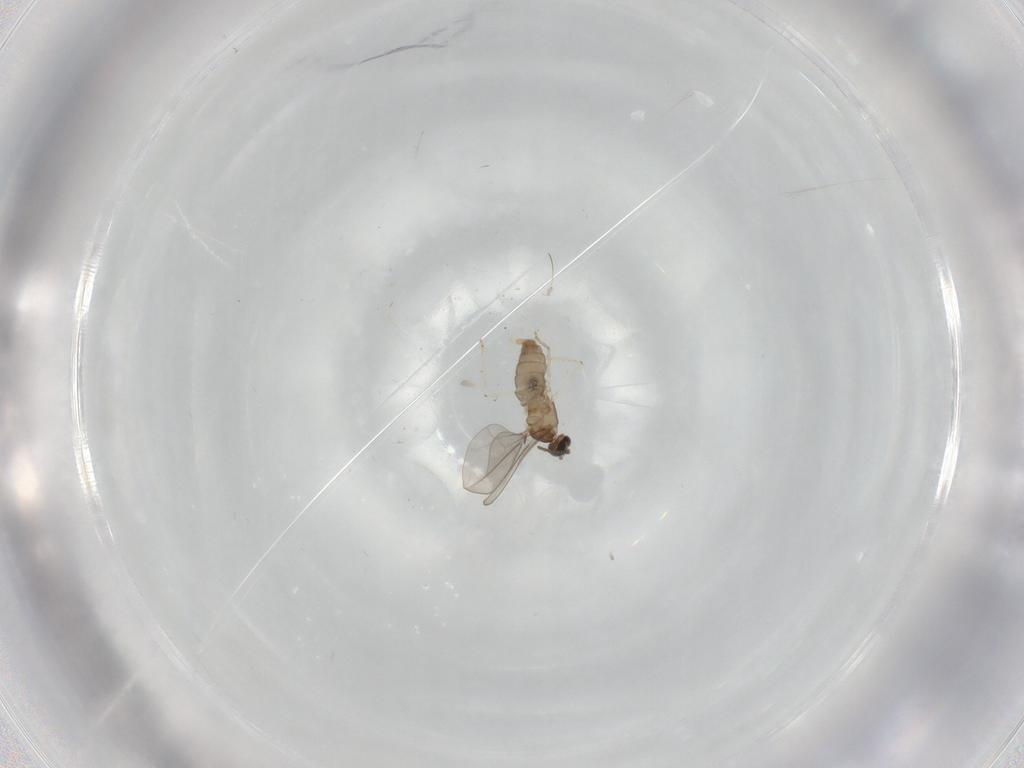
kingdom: Animalia
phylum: Arthropoda
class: Insecta
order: Diptera
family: Cecidomyiidae
